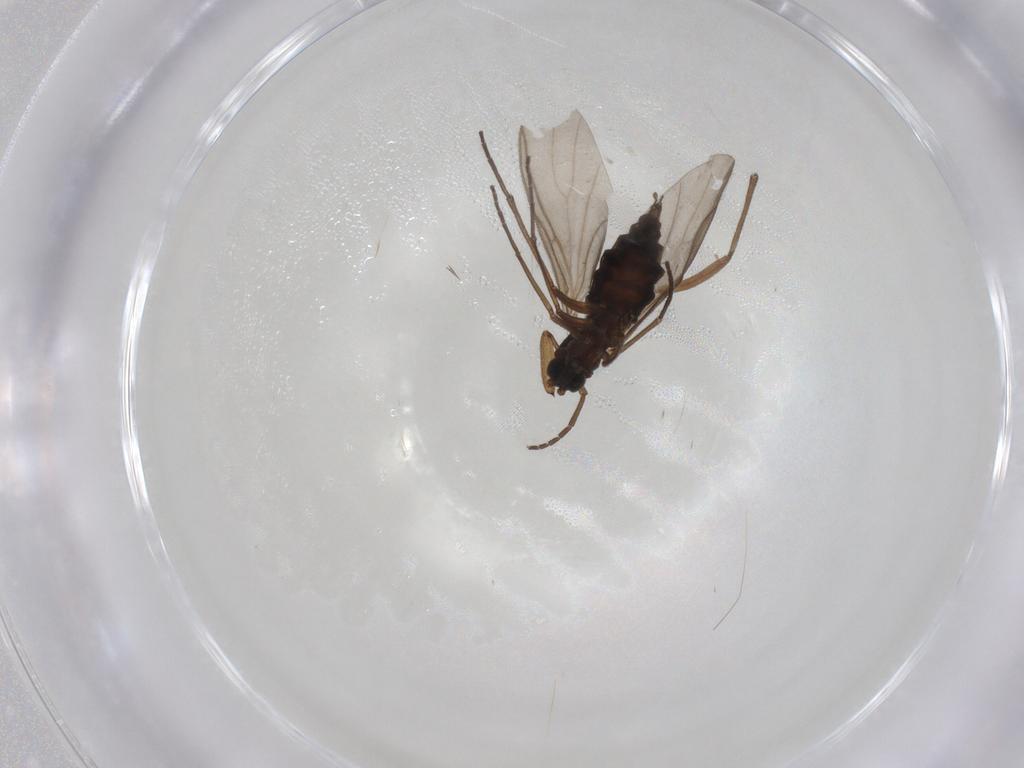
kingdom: Animalia
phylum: Arthropoda
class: Insecta
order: Diptera
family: Sciaridae
